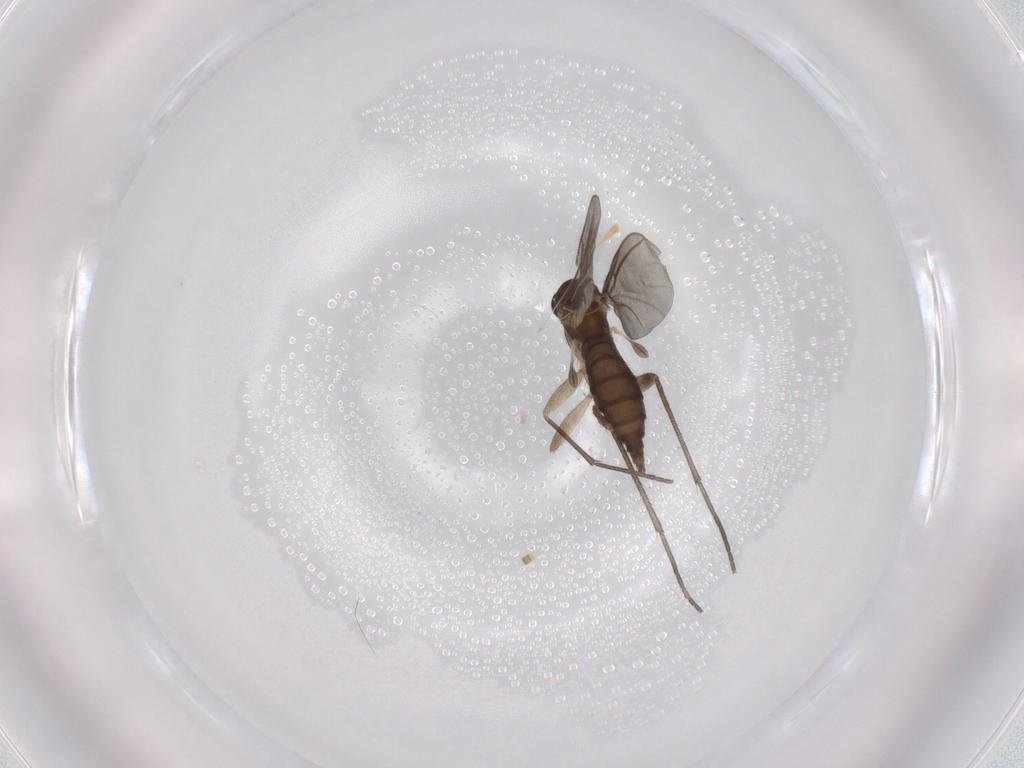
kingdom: Animalia
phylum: Arthropoda
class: Insecta
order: Diptera
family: Sciaridae
